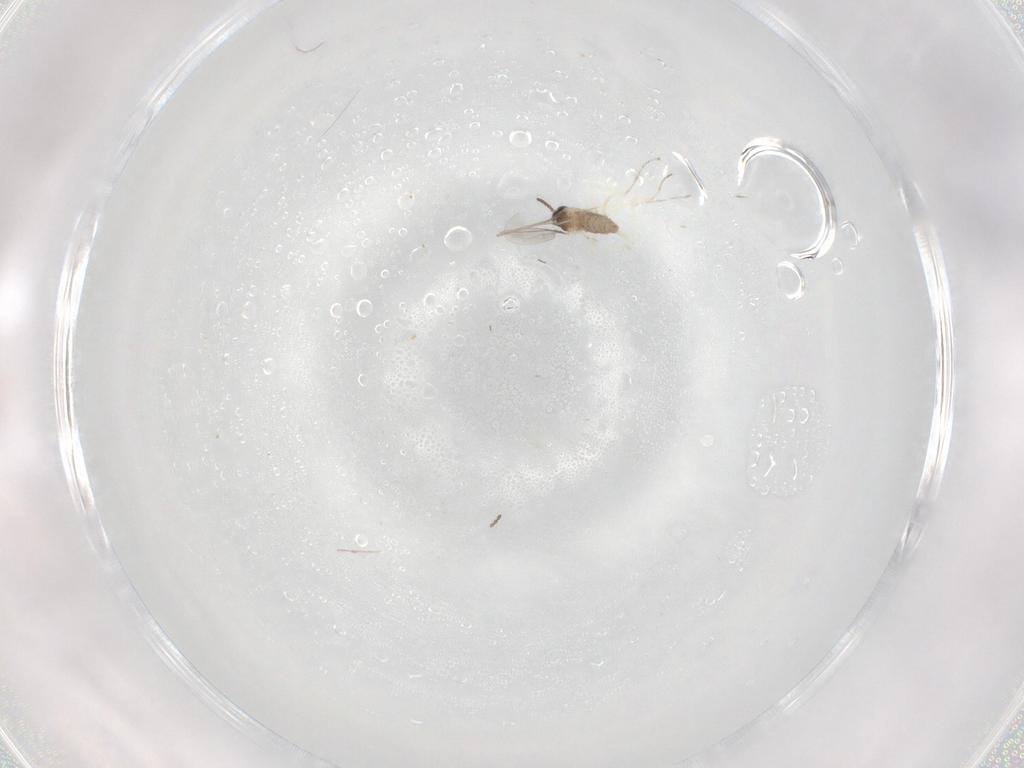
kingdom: Animalia
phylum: Arthropoda
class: Insecta
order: Diptera
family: Cecidomyiidae
